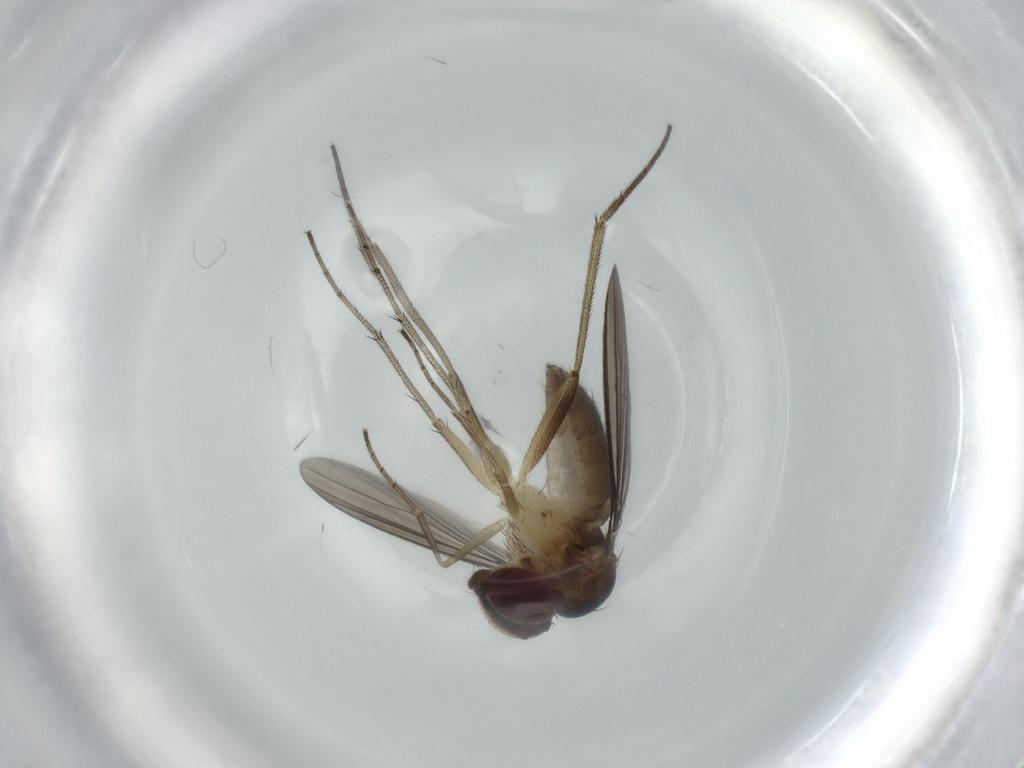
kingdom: Animalia
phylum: Arthropoda
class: Insecta
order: Diptera
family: Dolichopodidae
